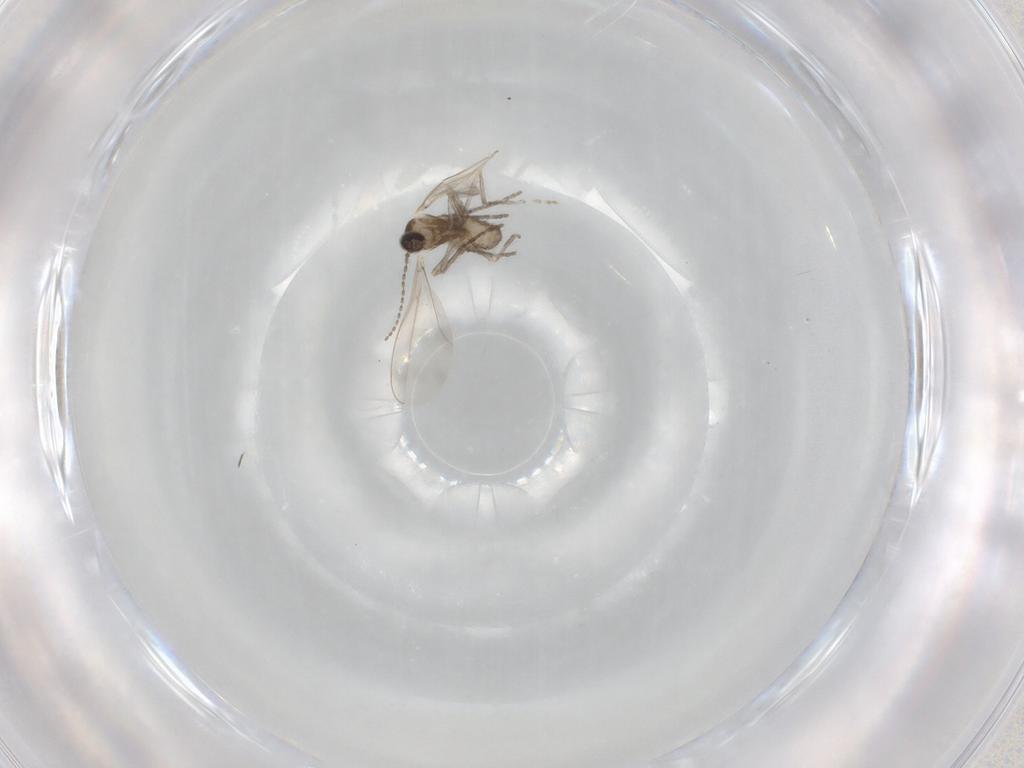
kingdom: Animalia
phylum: Arthropoda
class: Insecta
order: Diptera
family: Cecidomyiidae
